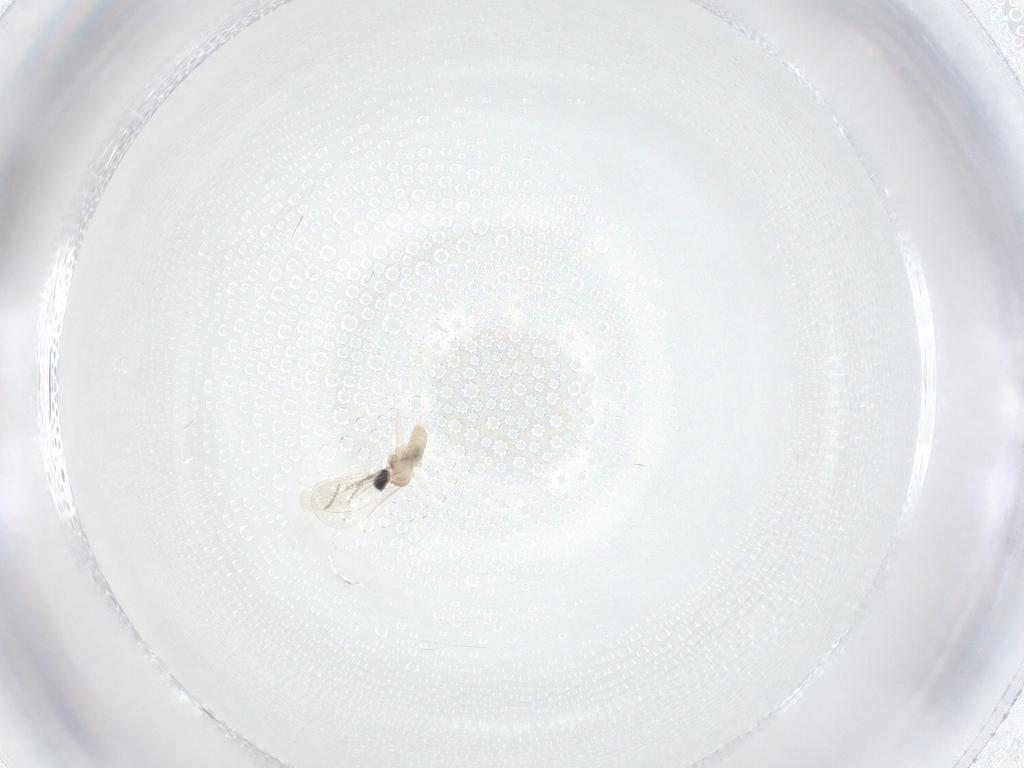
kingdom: Animalia
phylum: Arthropoda
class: Insecta
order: Diptera
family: Cecidomyiidae
